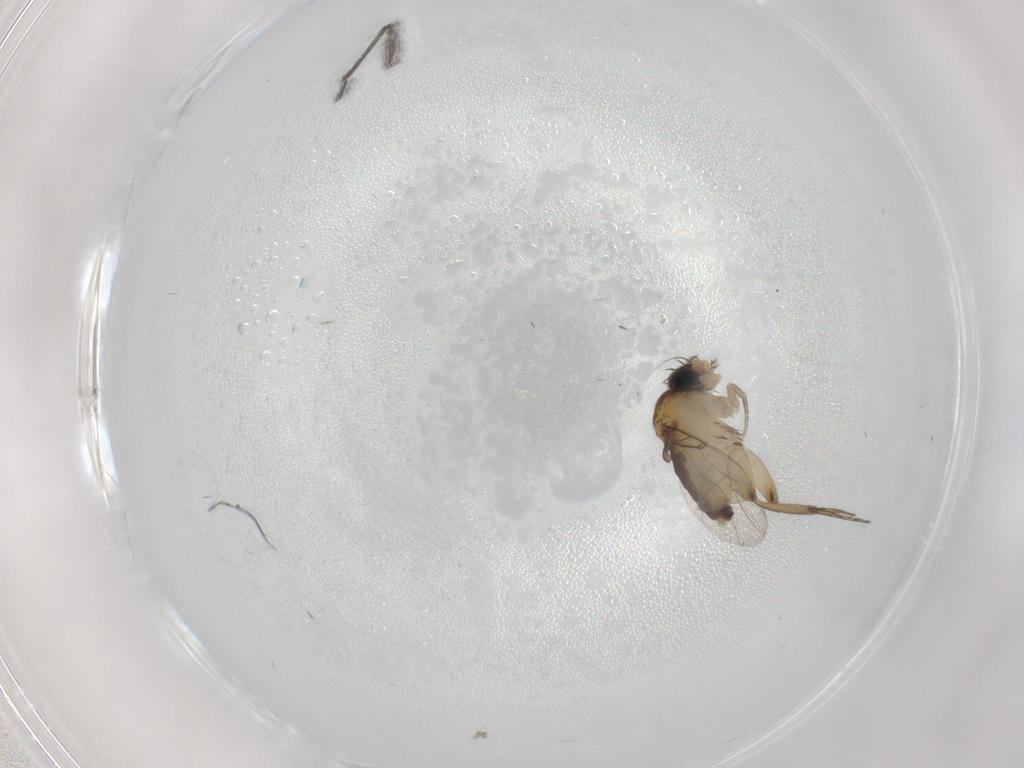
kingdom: Animalia
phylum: Arthropoda
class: Insecta
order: Diptera
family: Phoridae
